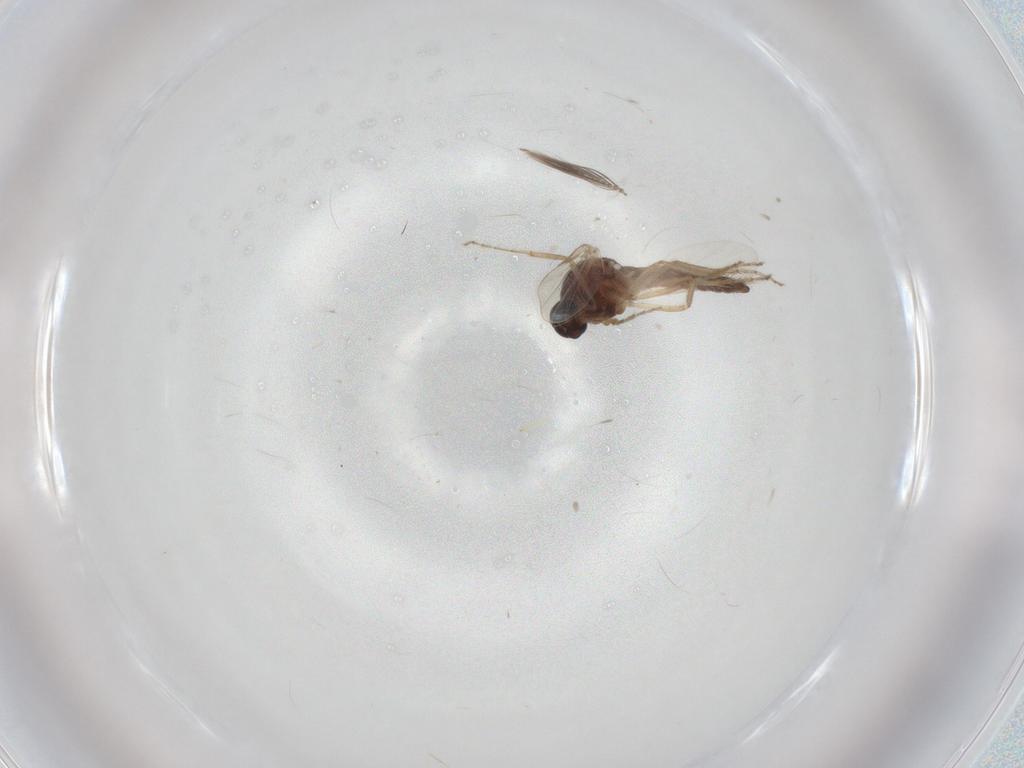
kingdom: Animalia
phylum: Arthropoda
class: Insecta
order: Diptera
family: Ceratopogonidae
